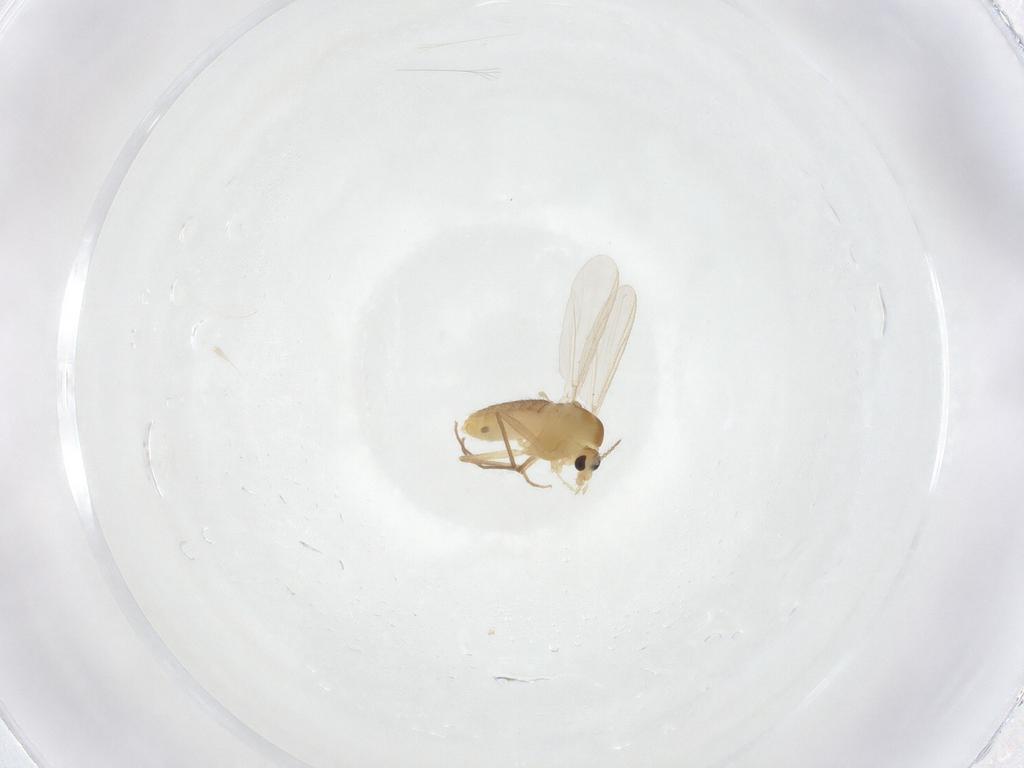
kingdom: Animalia
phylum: Arthropoda
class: Insecta
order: Diptera
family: Chironomidae
